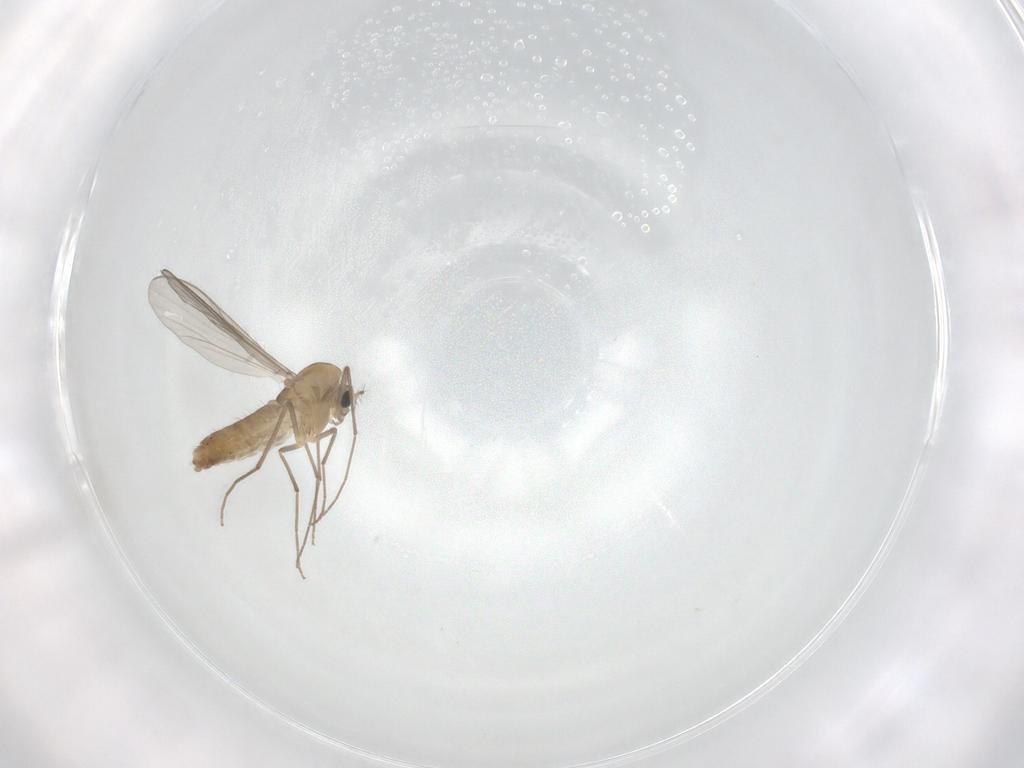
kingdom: Animalia
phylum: Arthropoda
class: Insecta
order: Diptera
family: Chironomidae
